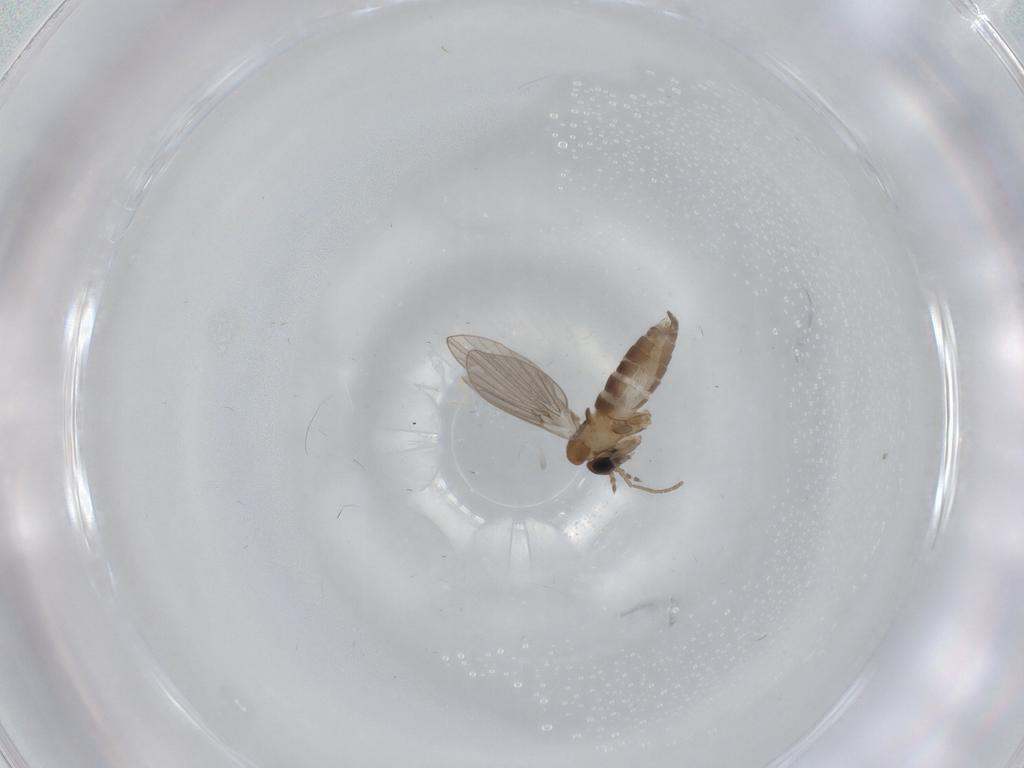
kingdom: Animalia
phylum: Arthropoda
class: Insecta
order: Diptera
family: Limoniidae
